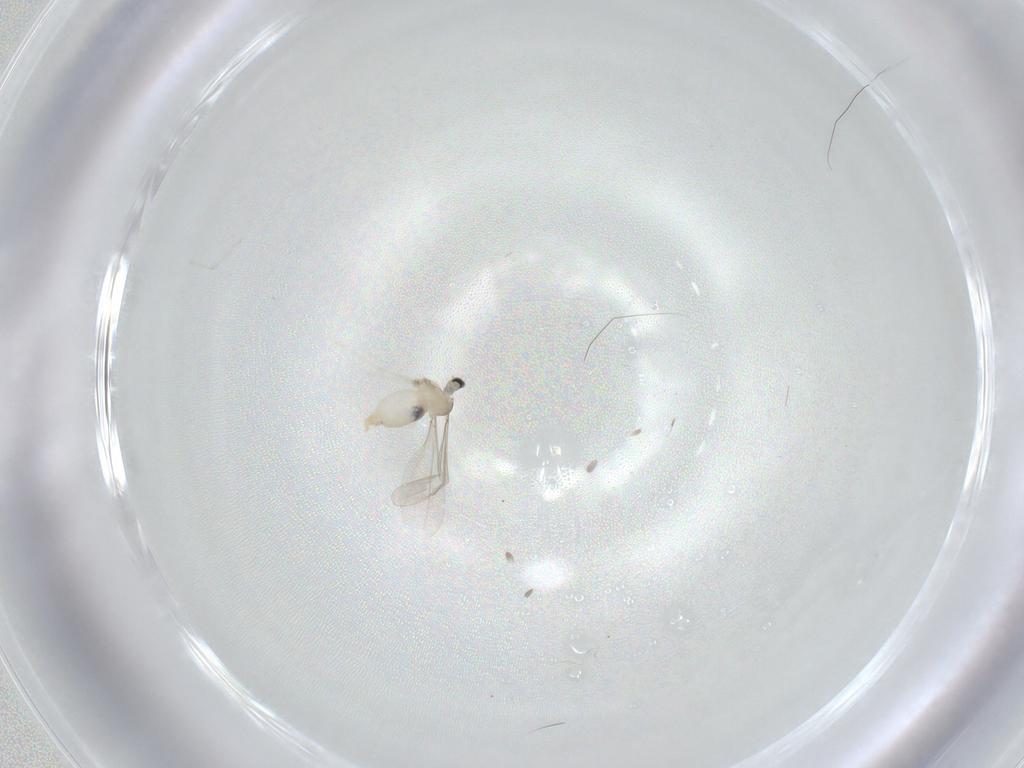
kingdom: Animalia
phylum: Arthropoda
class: Insecta
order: Diptera
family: Psychodidae
